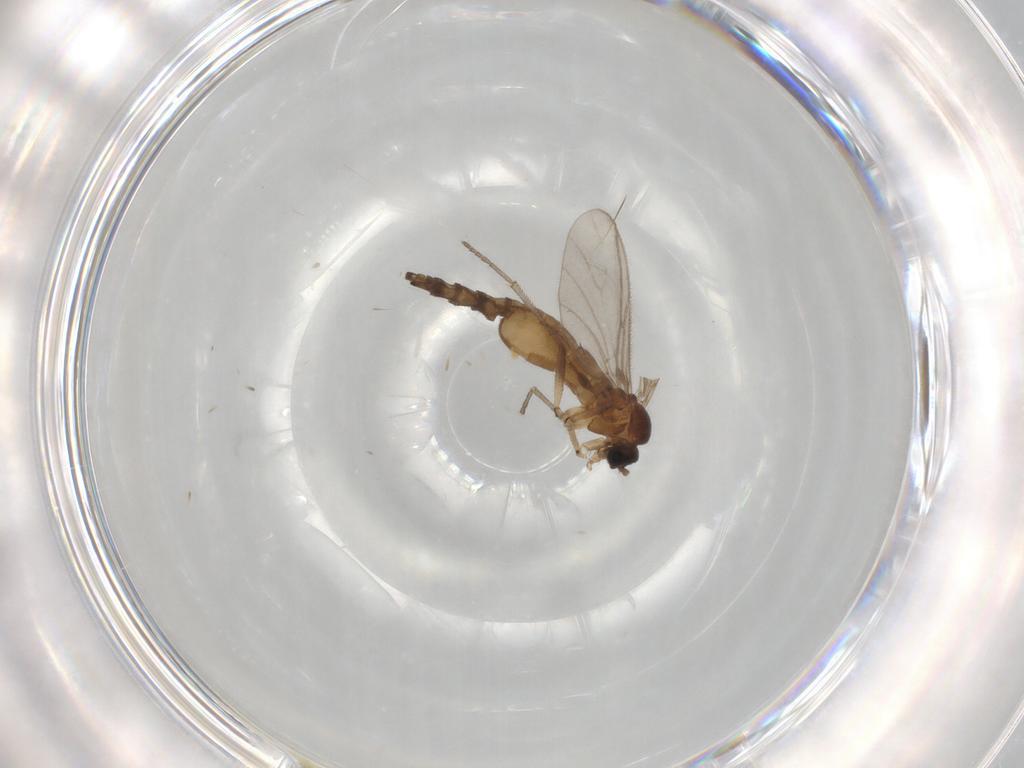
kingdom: Animalia
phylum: Arthropoda
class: Insecta
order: Diptera
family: Sciaridae
